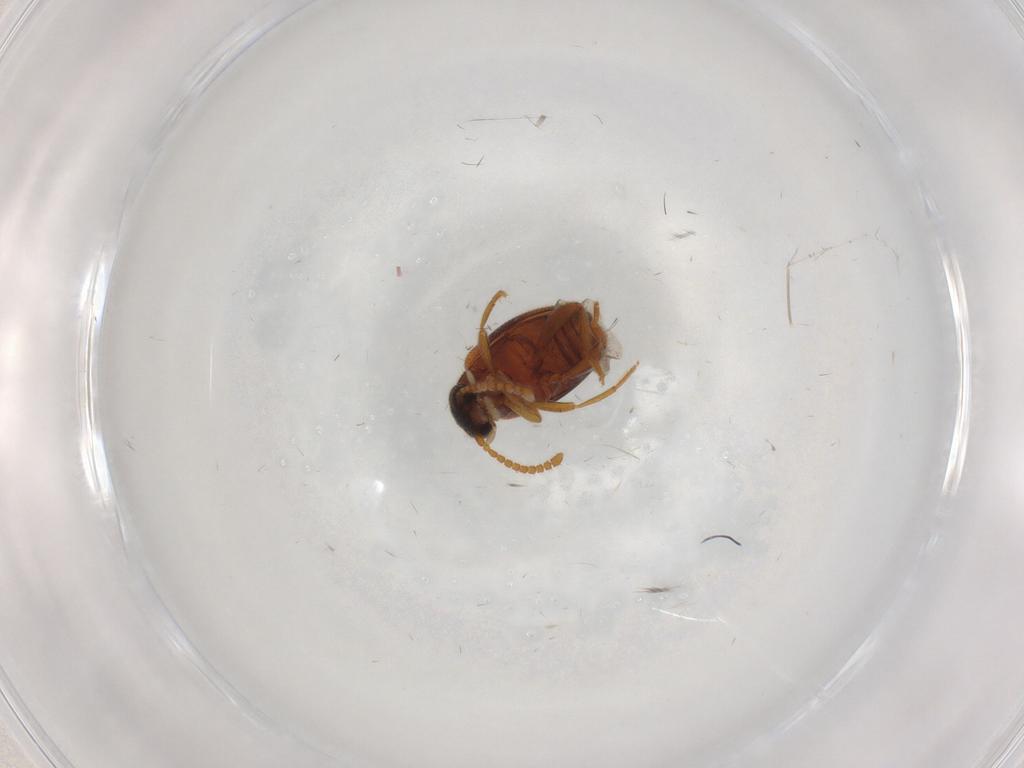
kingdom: Animalia
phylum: Arthropoda
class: Insecta
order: Coleoptera
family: Aderidae
